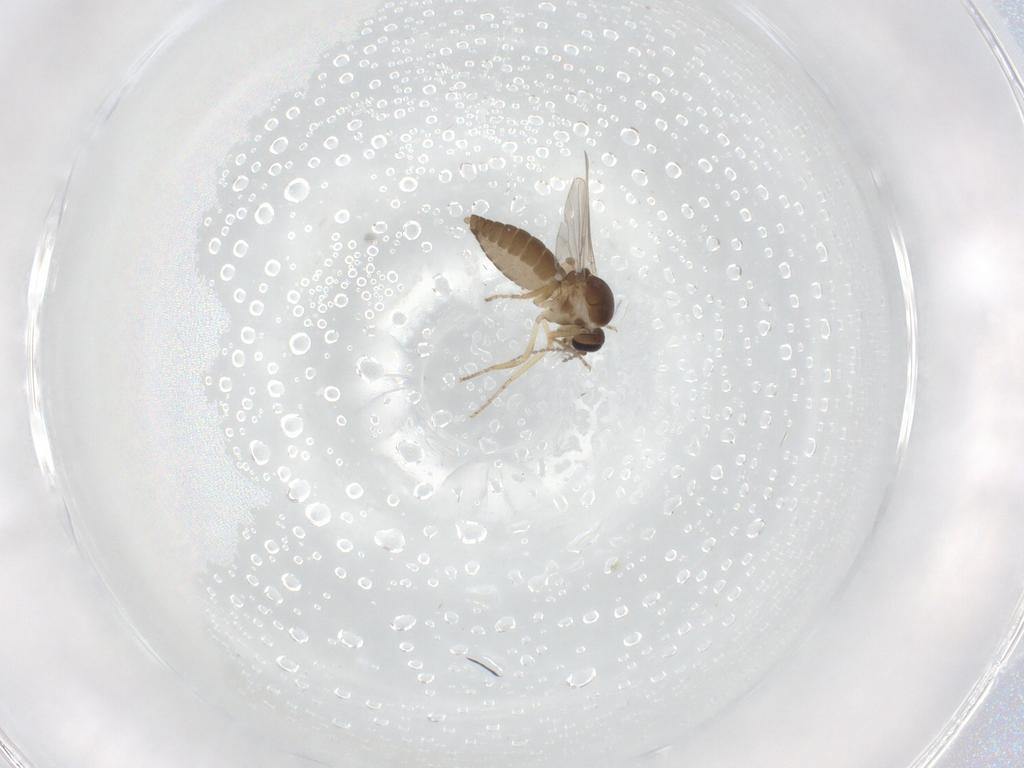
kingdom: Animalia
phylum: Arthropoda
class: Insecta
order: Diptera
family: Ceratopogonidae
